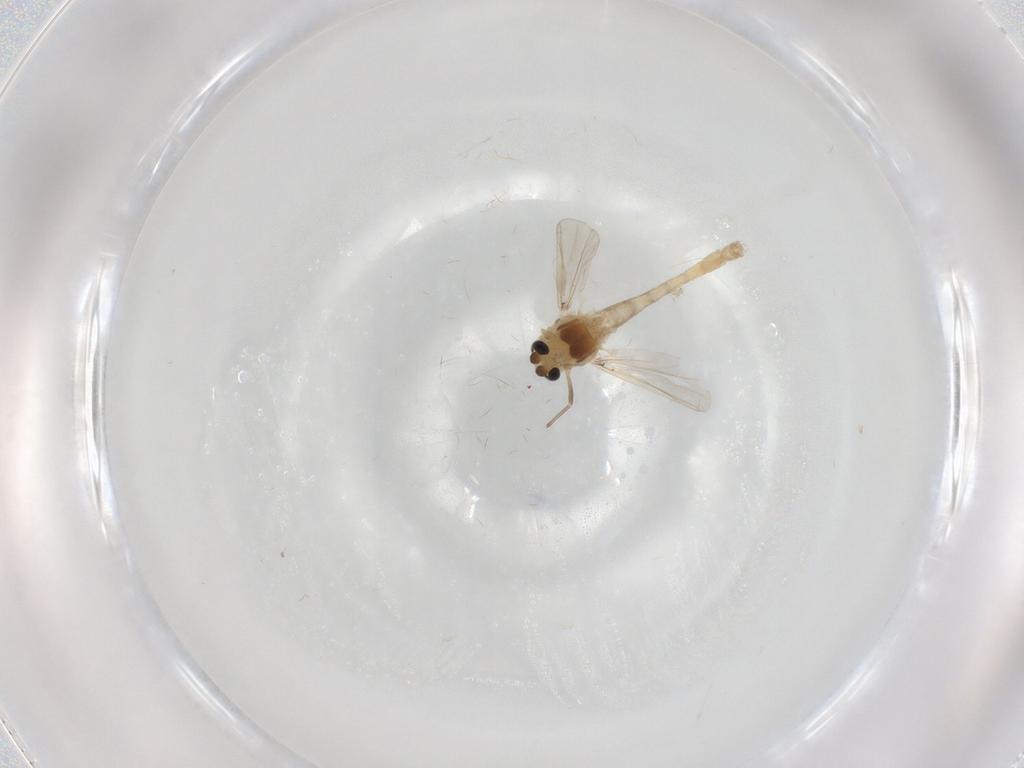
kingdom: Animalia
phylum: Arthropoda
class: Insecta
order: Diptera
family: Chironomidae
